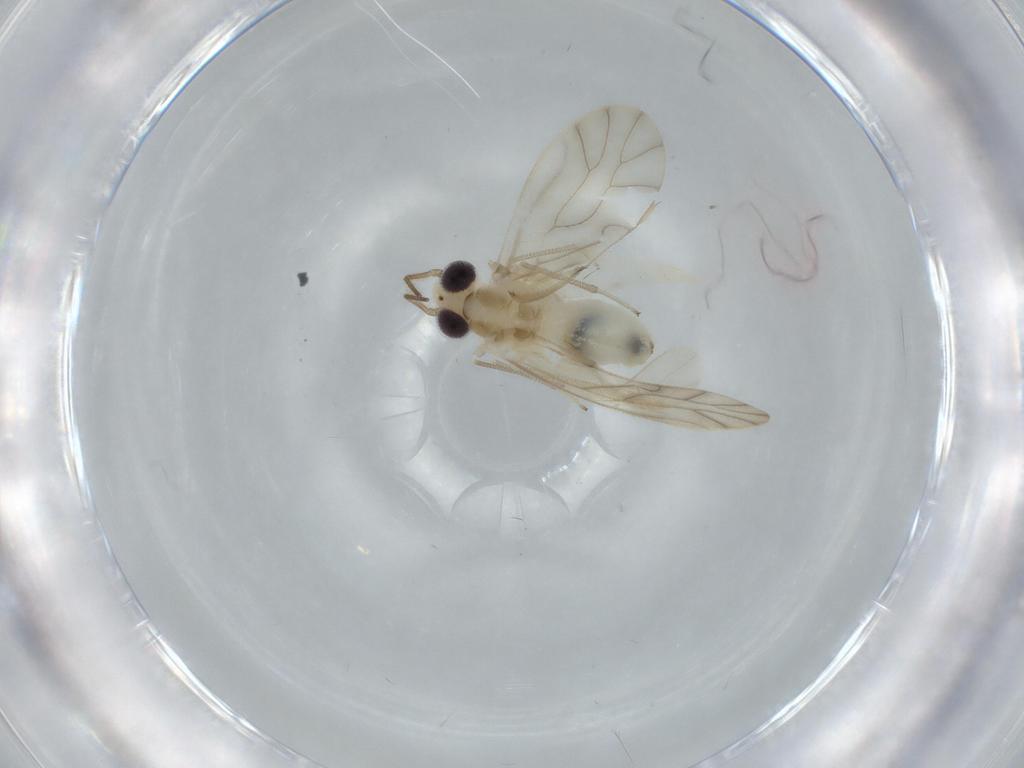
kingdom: Animalia
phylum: Arthropoda
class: Insecta
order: Psocodea
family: Caeciliusidae
